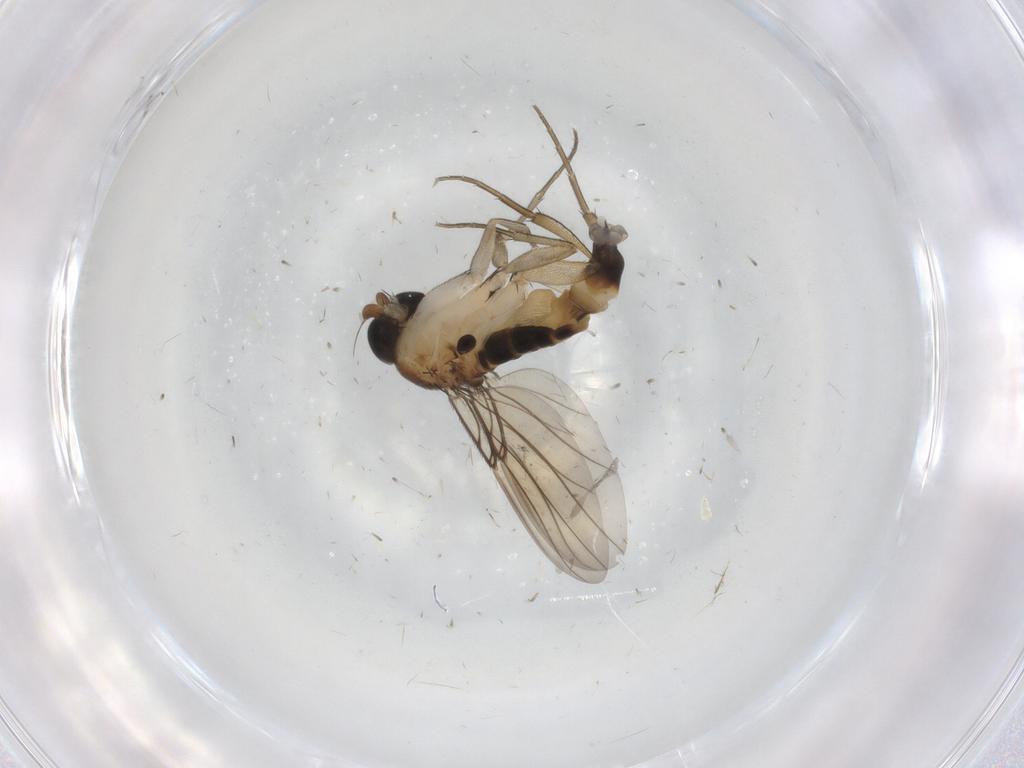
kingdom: Animalia
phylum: Arthropoda
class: Insecta
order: Diptera
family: Phoridae
